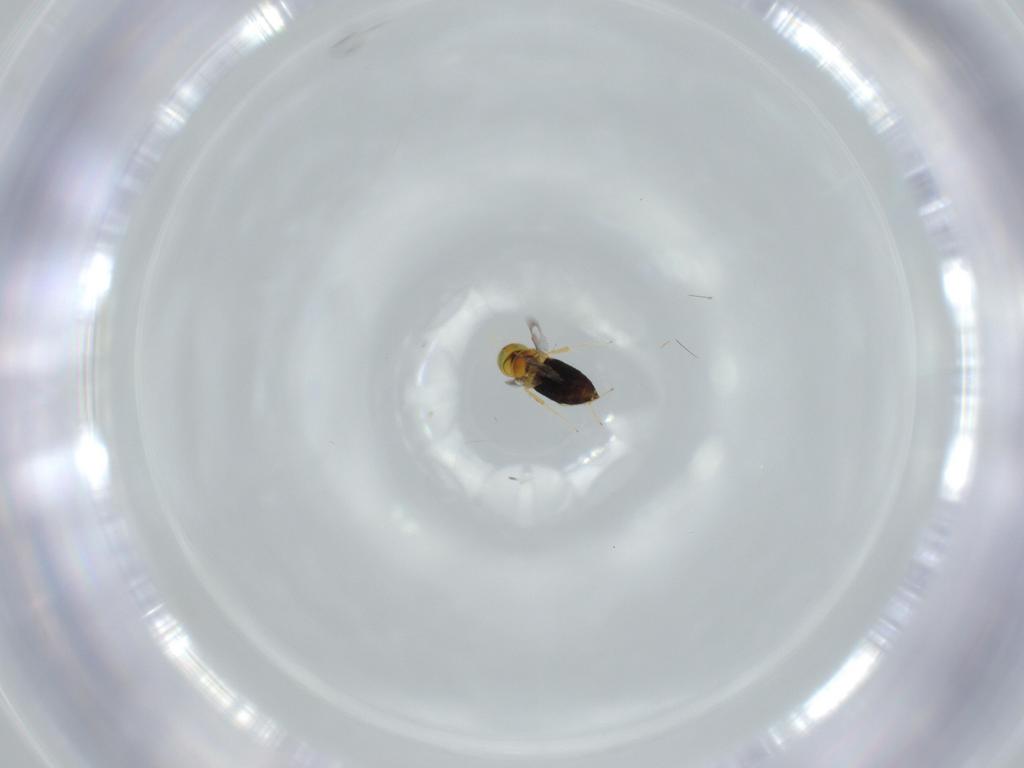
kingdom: Animalia
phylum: Arthropoda
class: Insecta
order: Hymenoptera
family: Signiphoridae
